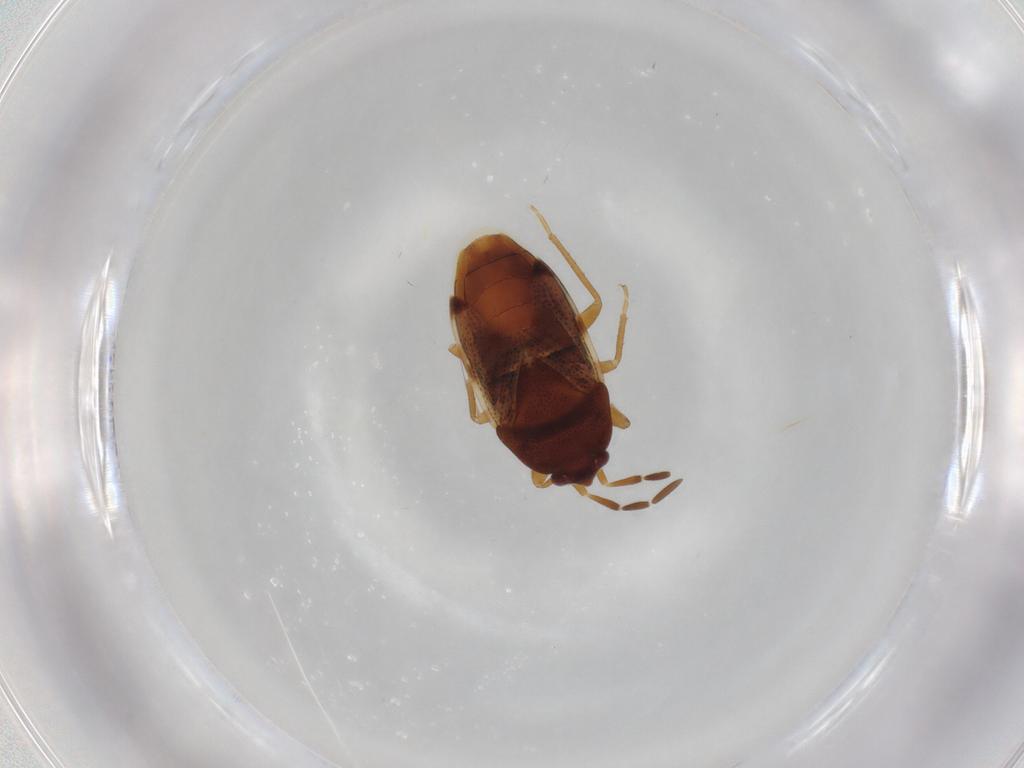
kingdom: Animalia
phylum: Arthropoda
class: Insecta
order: Hemiptera
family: Rhyparochromidae
